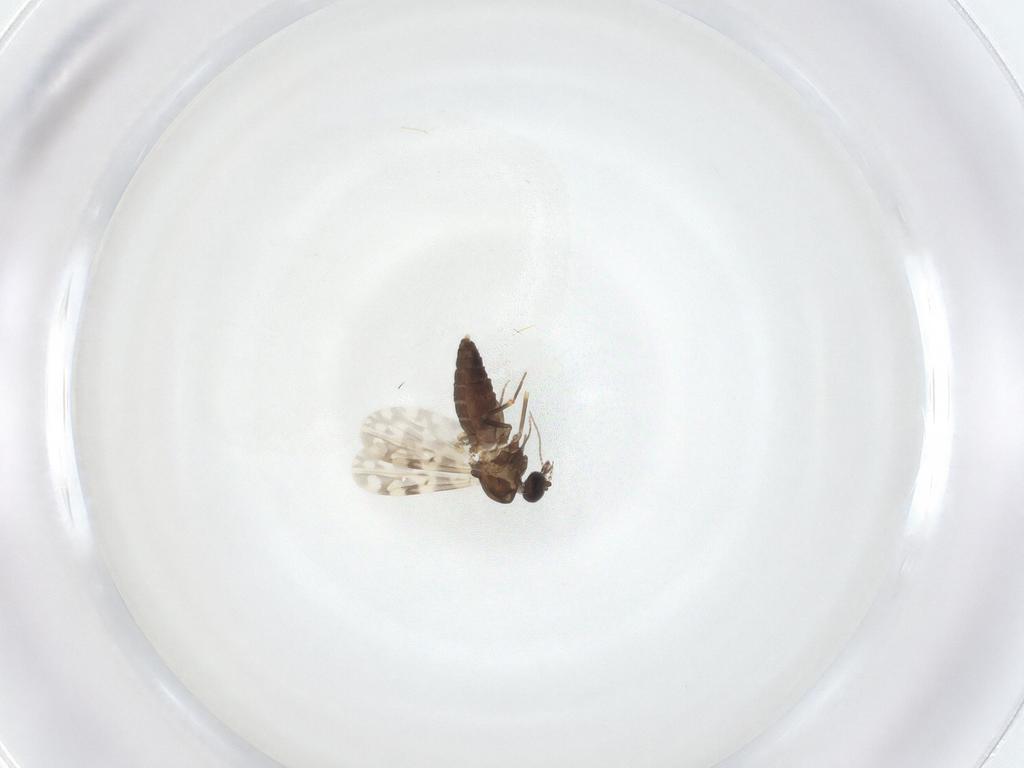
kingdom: Animalia
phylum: Arthropoda
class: Insecta
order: Diptera
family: Ceratopogonidae
